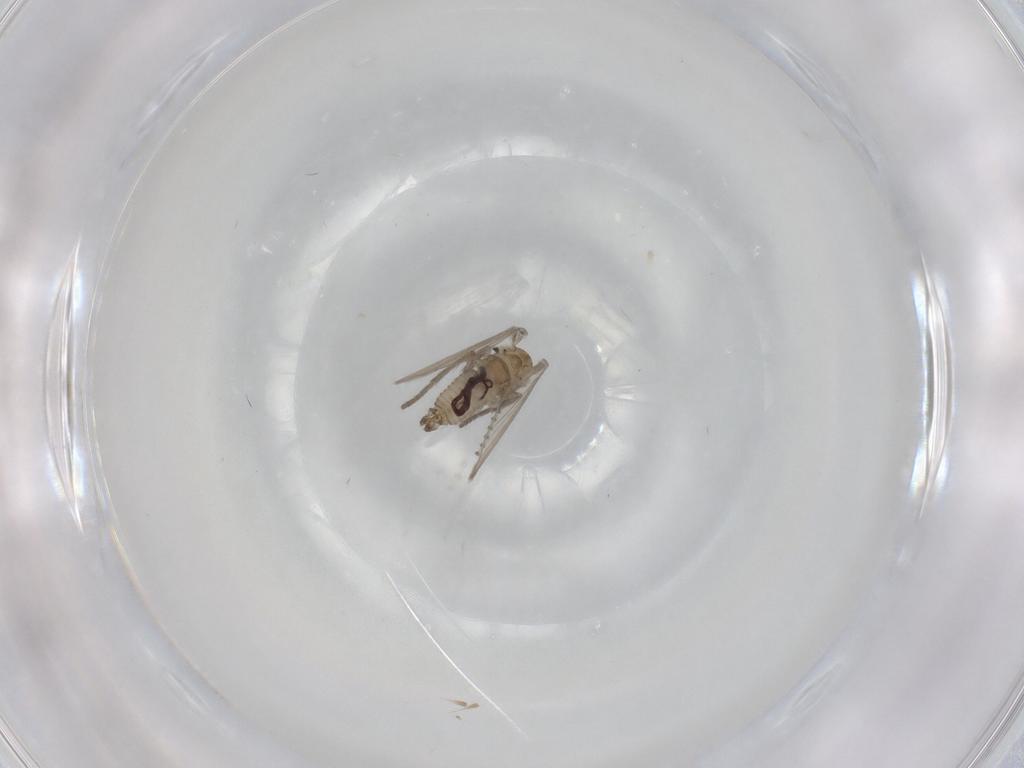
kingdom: Animalia
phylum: Arthropoda
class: Insecta
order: Diptera
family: Psychodidae
